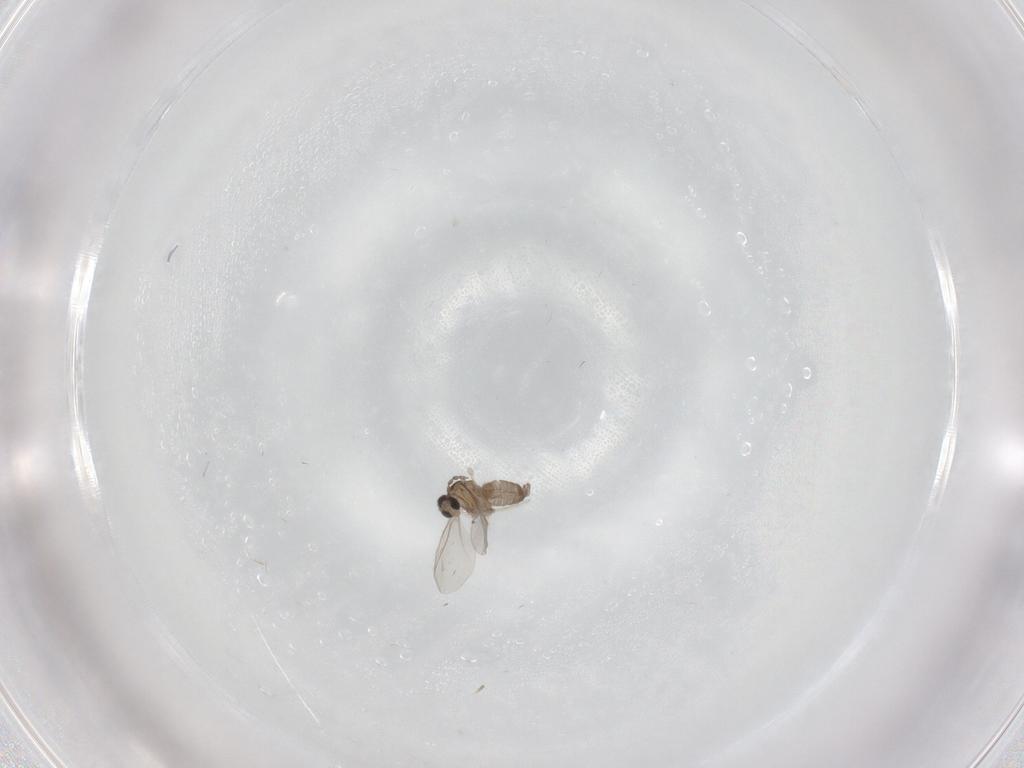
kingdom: Animalia
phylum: Arthropoda
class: Insecta
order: Diptera
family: Cecidomyiidae
